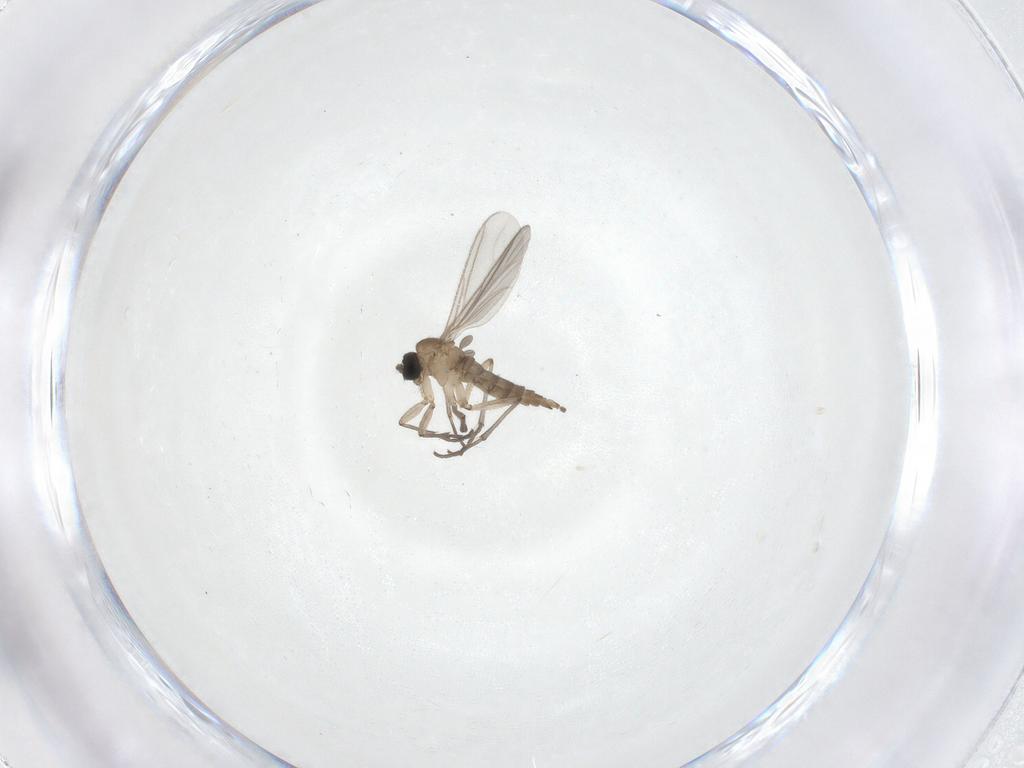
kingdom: Animalia
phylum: Arthropoda
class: Insecta
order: Diptera
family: Sciaridae
